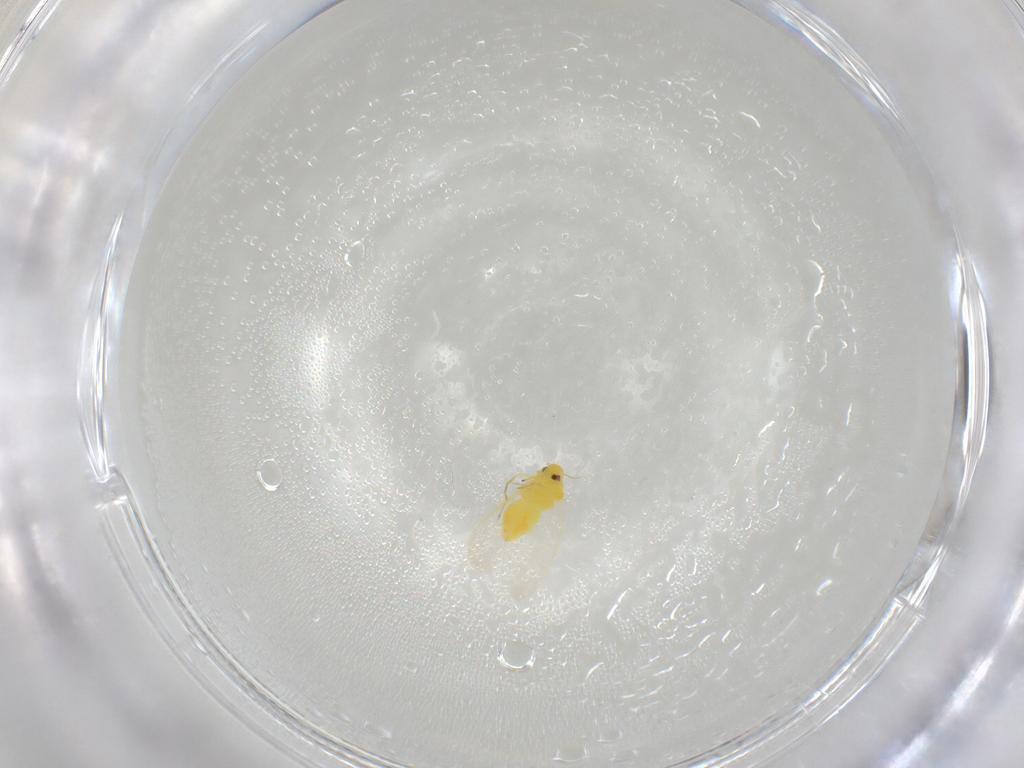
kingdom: Animalia
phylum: Arthropoda
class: Insecta
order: Hemiptera
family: Aleyrodidae
